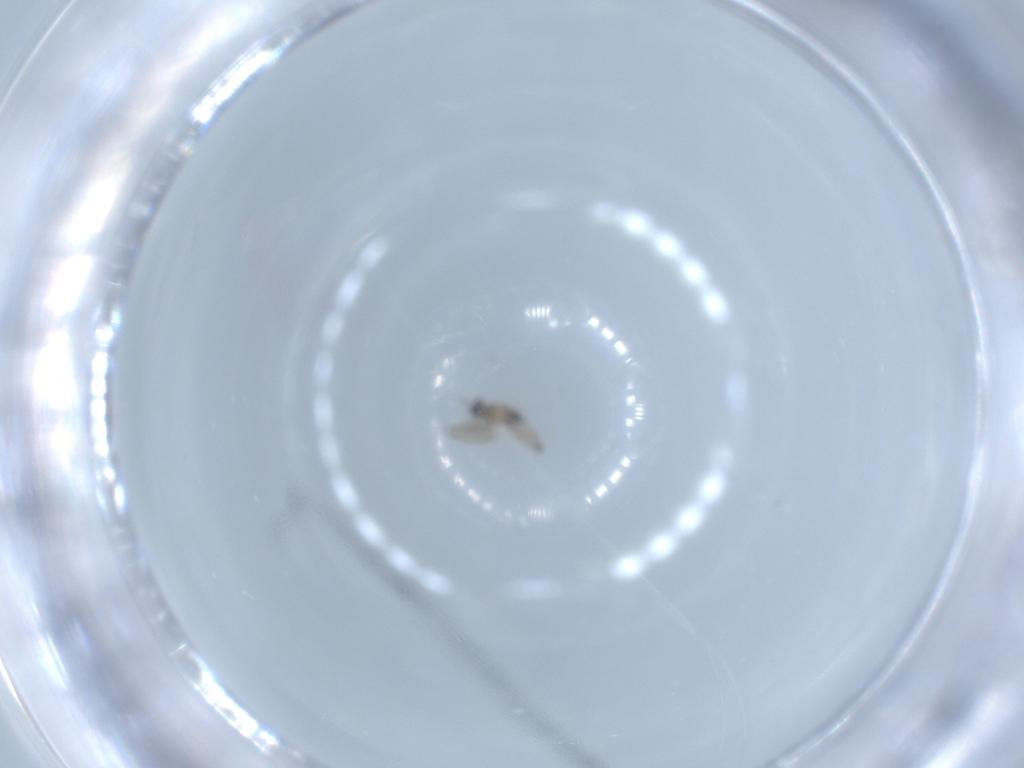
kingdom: Animalia
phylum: Arthropoda
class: Insecta
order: Diptera
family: Cecidomyiidae
